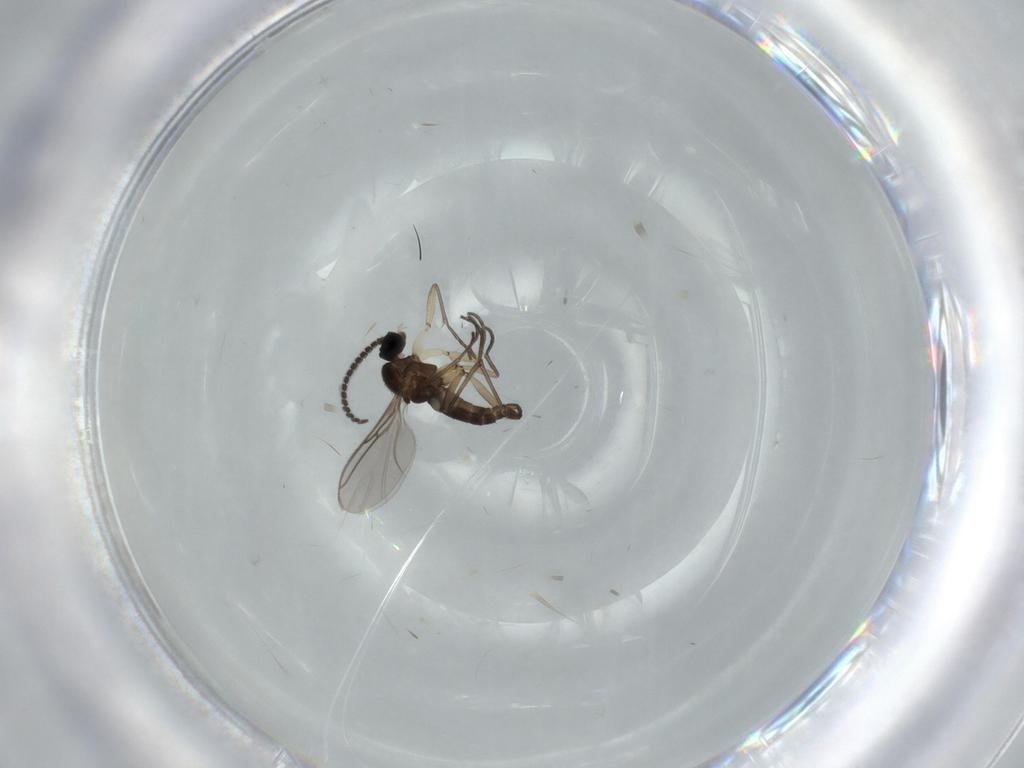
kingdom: Animalia
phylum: Arthropoda
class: Insecta
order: Diptera
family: Sciaridae
